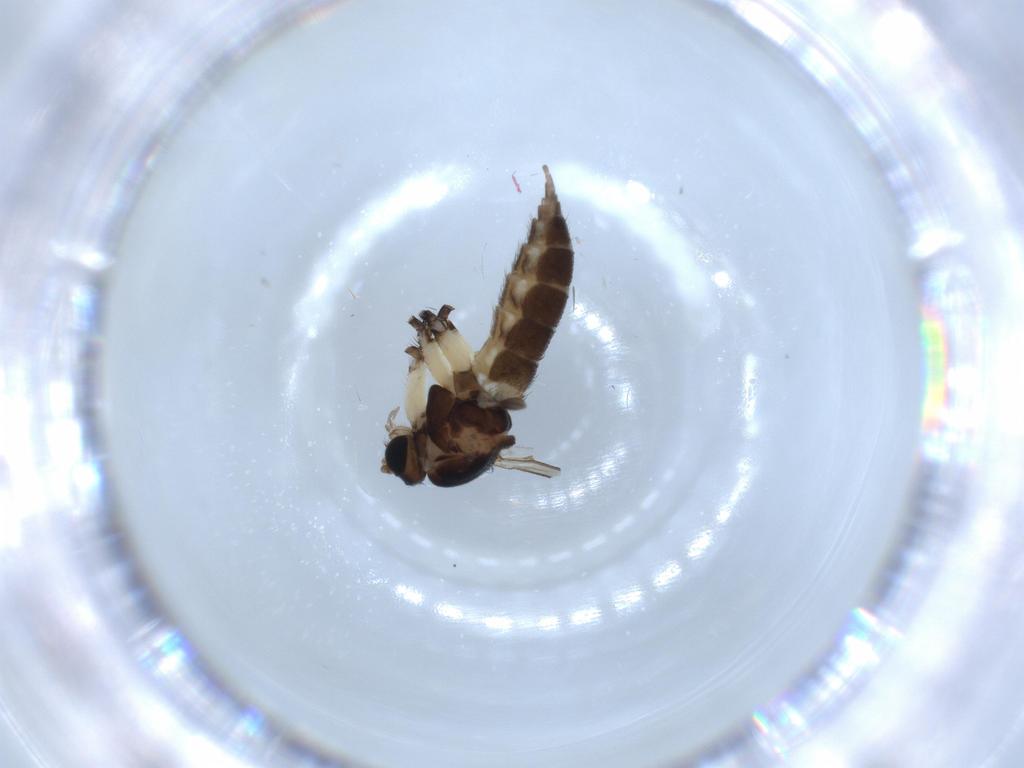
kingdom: Animalia
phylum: Arthropoda
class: Insecta
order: Diptera
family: Sciaridae
